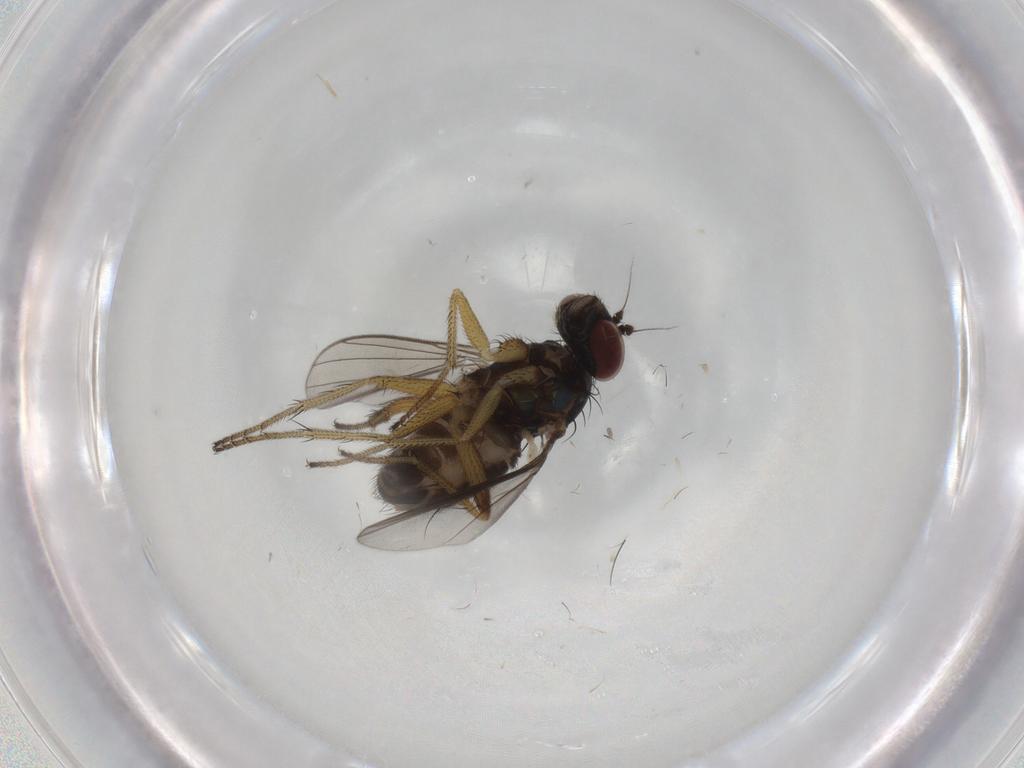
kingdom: Animalia
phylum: Arthropoda
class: Insecta
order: Diptera
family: Dolichopodidae
